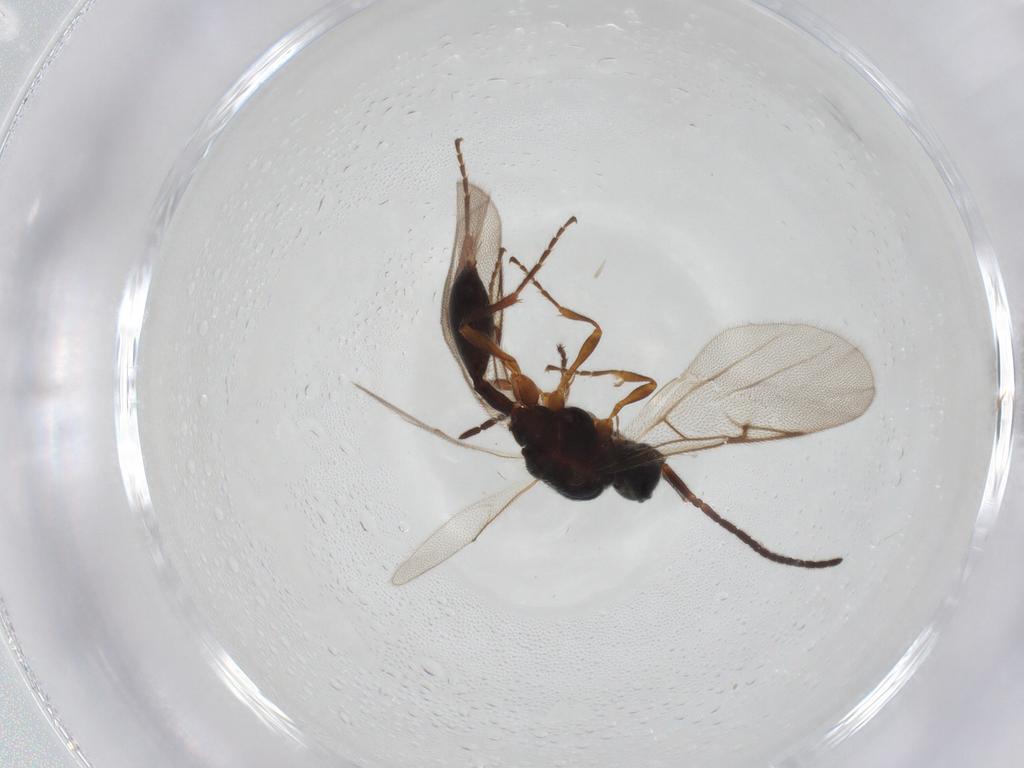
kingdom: Animalia
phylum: Arthropoda
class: Insecta
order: Hymenoptera
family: Diapriidae
